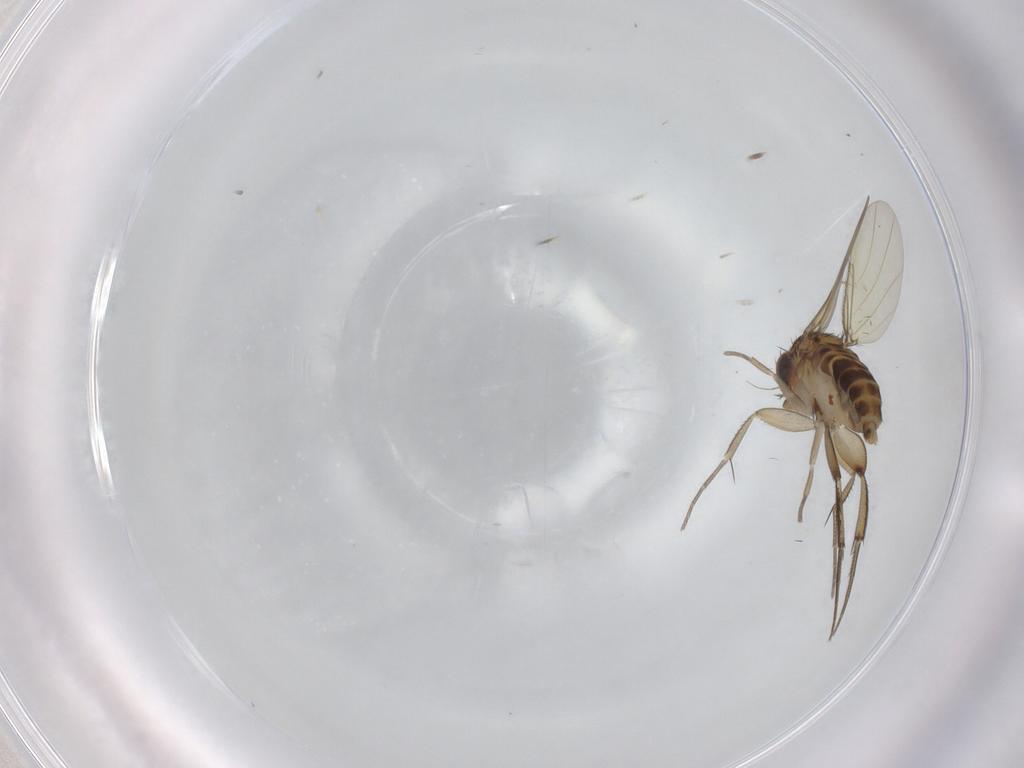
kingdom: Animalia
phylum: Arthropoda
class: Insecta
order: Diptera
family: Phoridae
